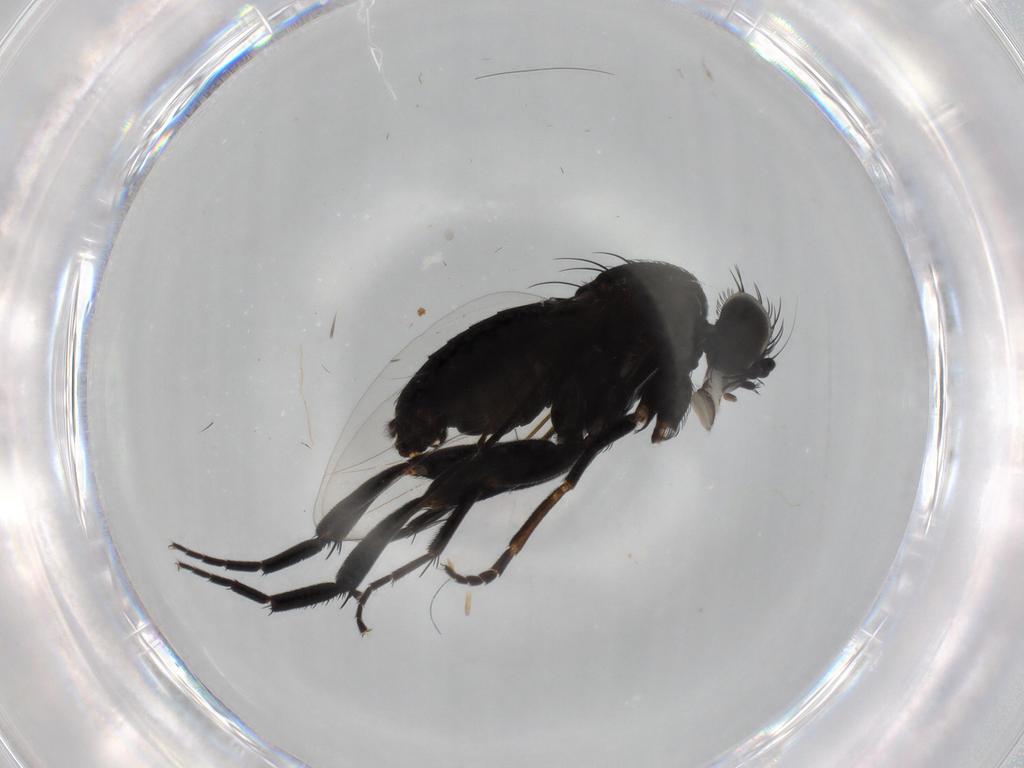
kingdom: Animalia
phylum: Arthropoda
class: Insecta
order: Diptera
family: Phoridae
